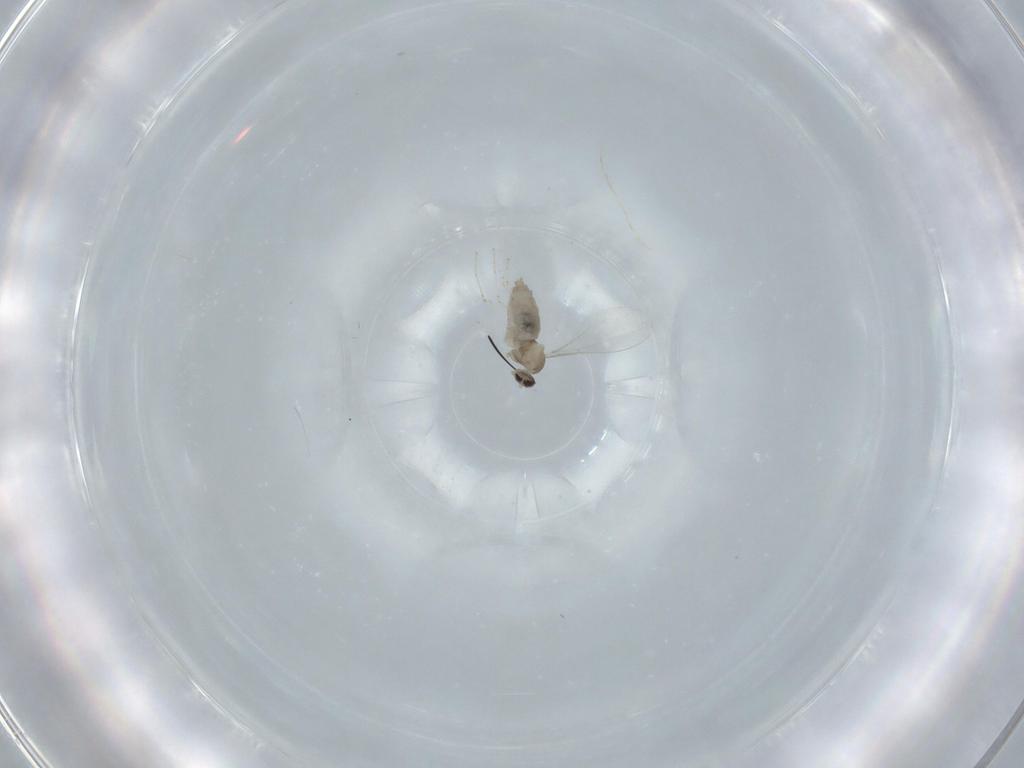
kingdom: Animalia
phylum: Arthropoda
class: Insecta
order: Diptera
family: Cecidomyiidae
